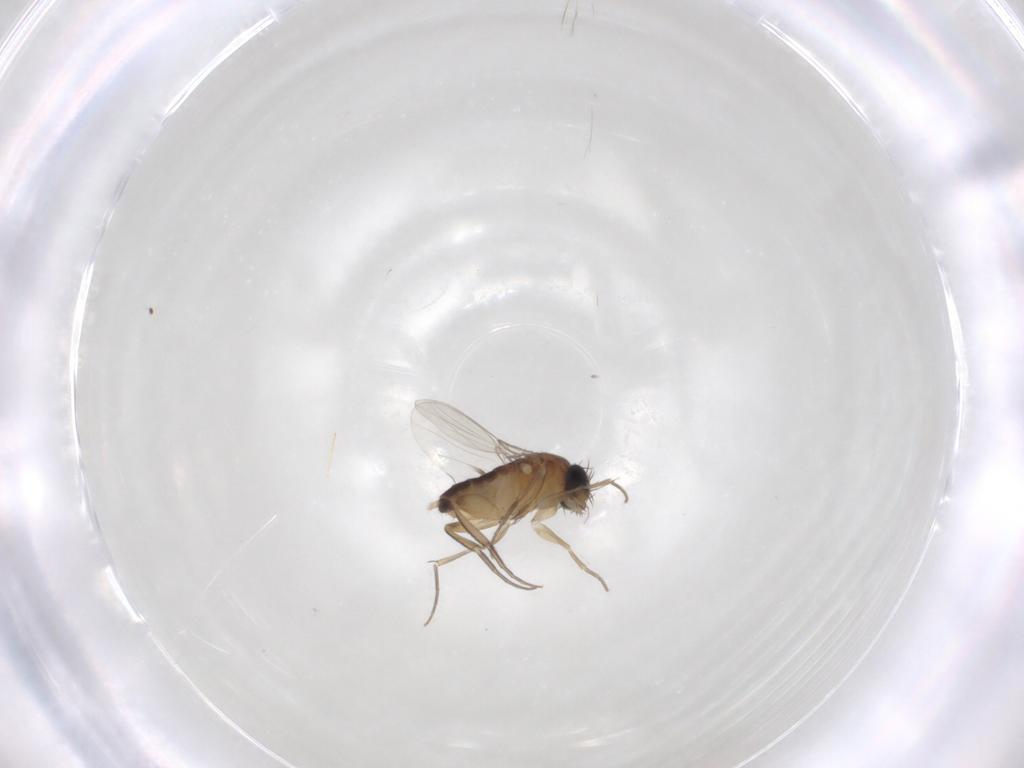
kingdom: Animalia
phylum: Arthropoda
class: Insecta
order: Diptera
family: Phoridae
